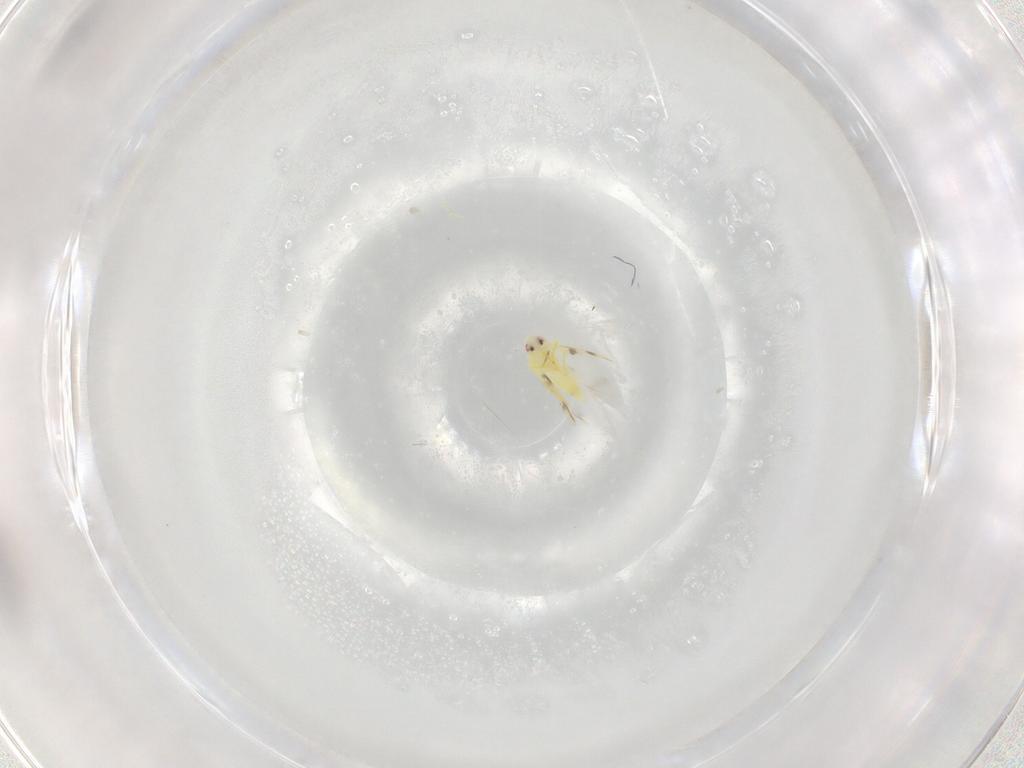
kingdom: Animalia
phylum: Arthropoda
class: Insecta
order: Hemiptera
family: Aleyrodidae
